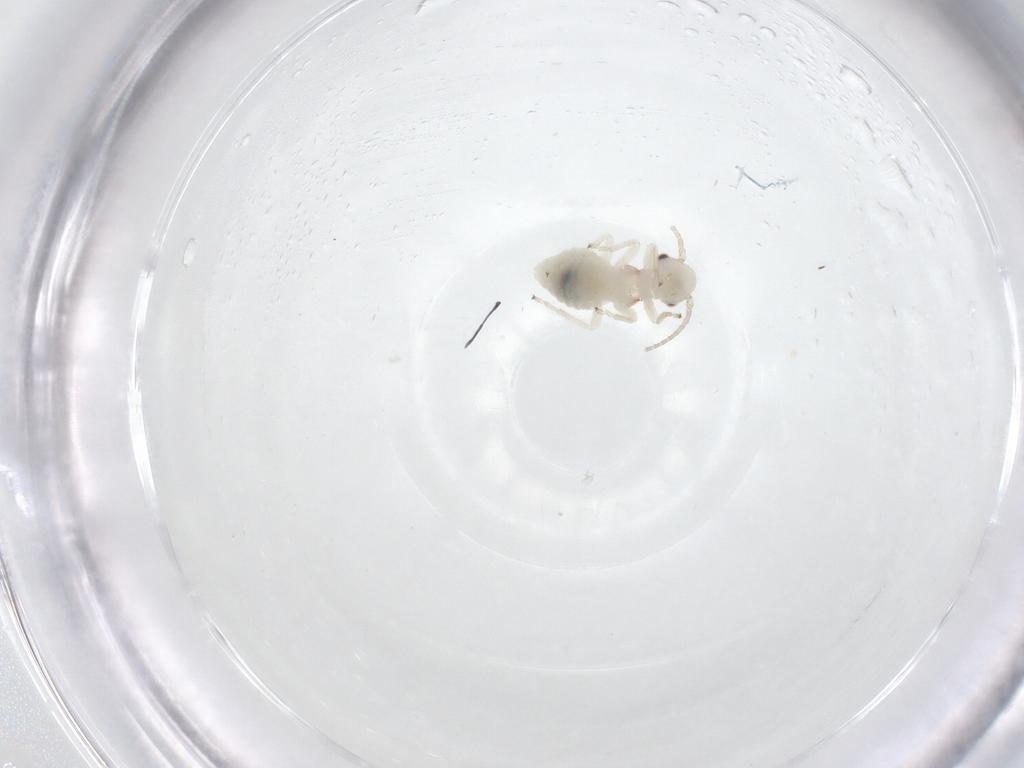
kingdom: Animalia
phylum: Arthropoda
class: Insecta
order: Psocodea
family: Amphipsocidae
